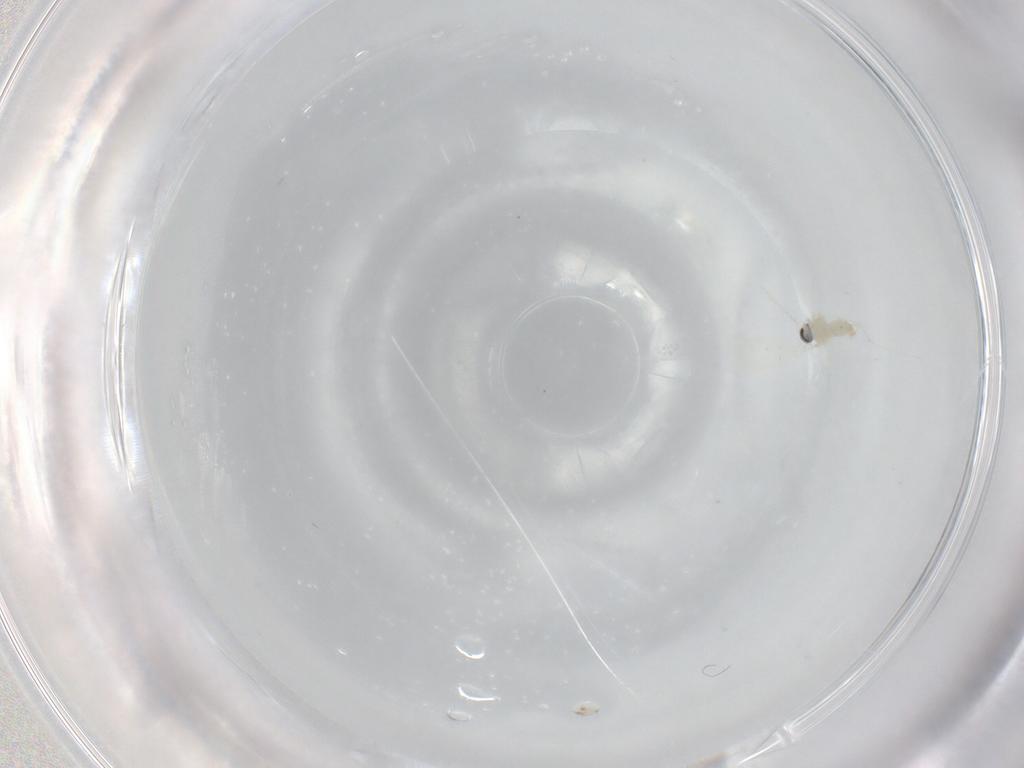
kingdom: Animalia
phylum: Arthropoda
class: Insecta
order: Diptera
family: Cecidomyiidae
